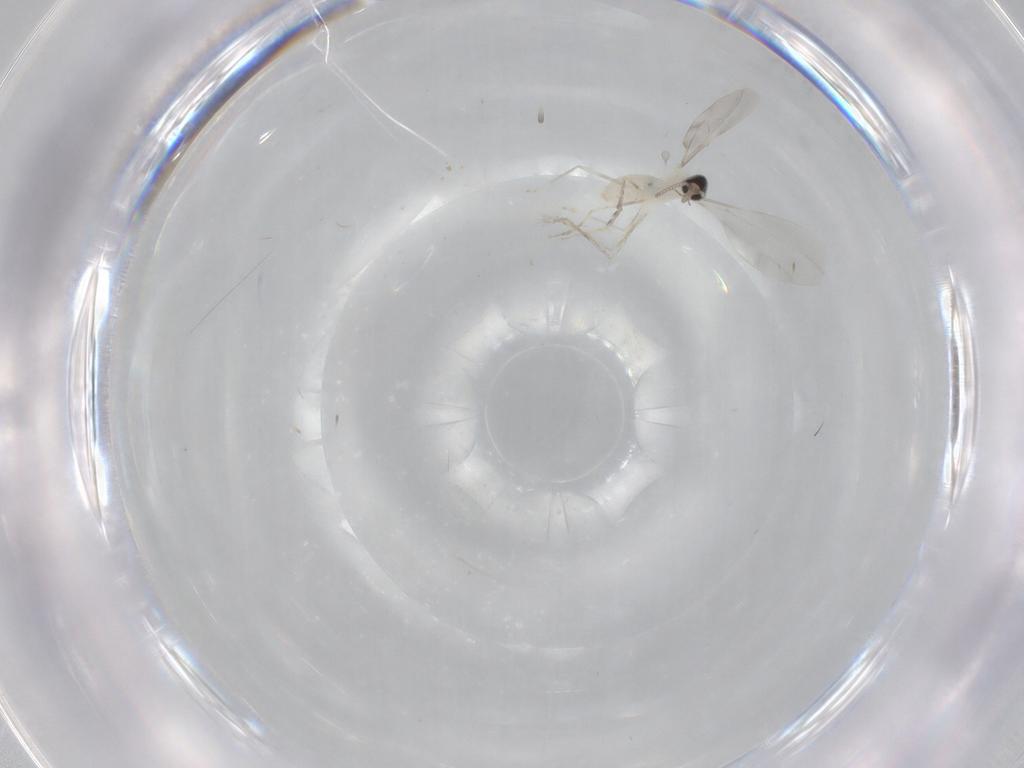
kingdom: Animalia
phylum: Arthropoda
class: Insecta
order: Diptera
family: Cecidomyiidae
